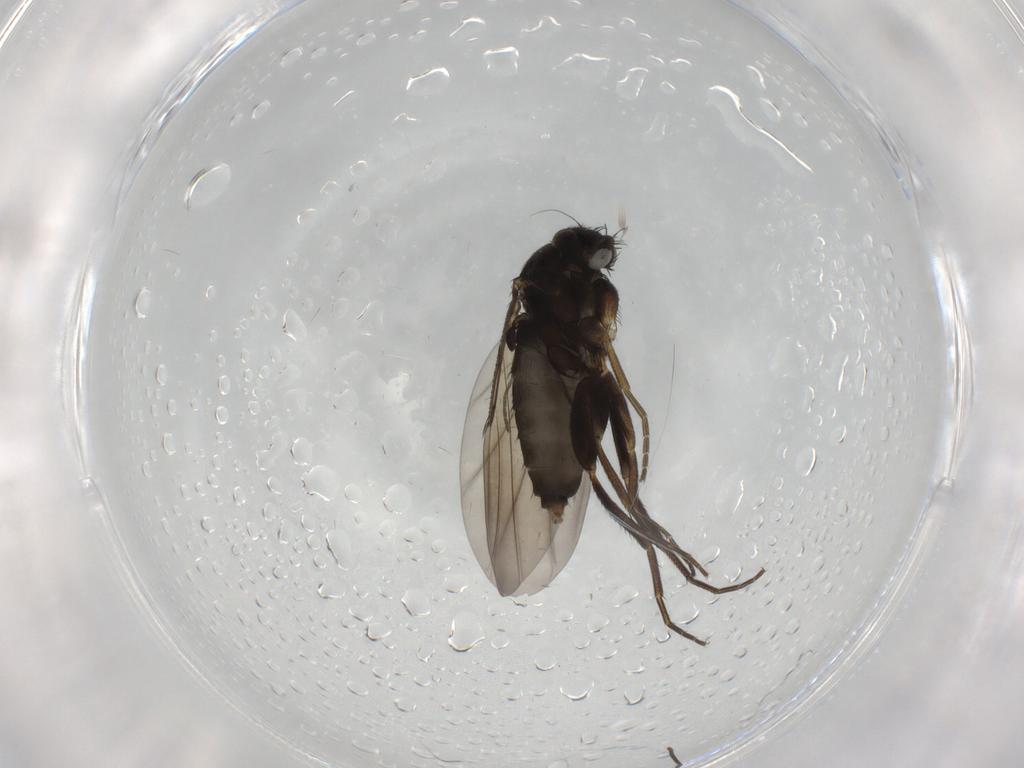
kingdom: Animalia
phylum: Arthropoda
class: Insecta
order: Diptera
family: Phoridae
